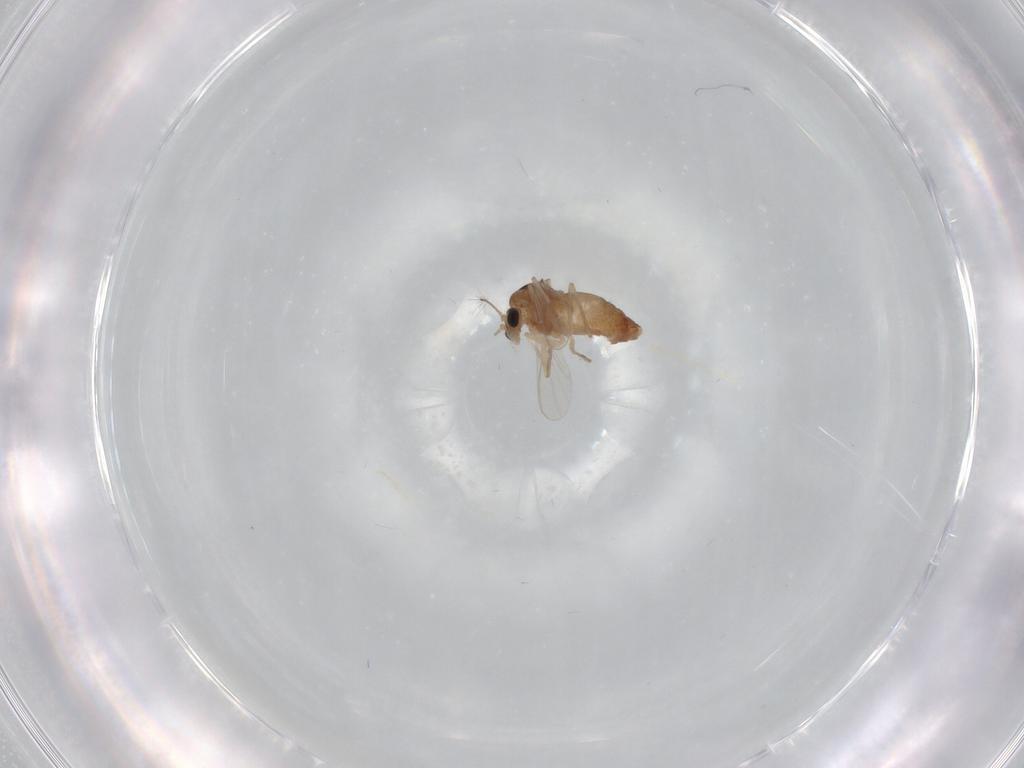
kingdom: Animalia
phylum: Arthropoda
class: Insecta
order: Diptera
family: Chironomidae
